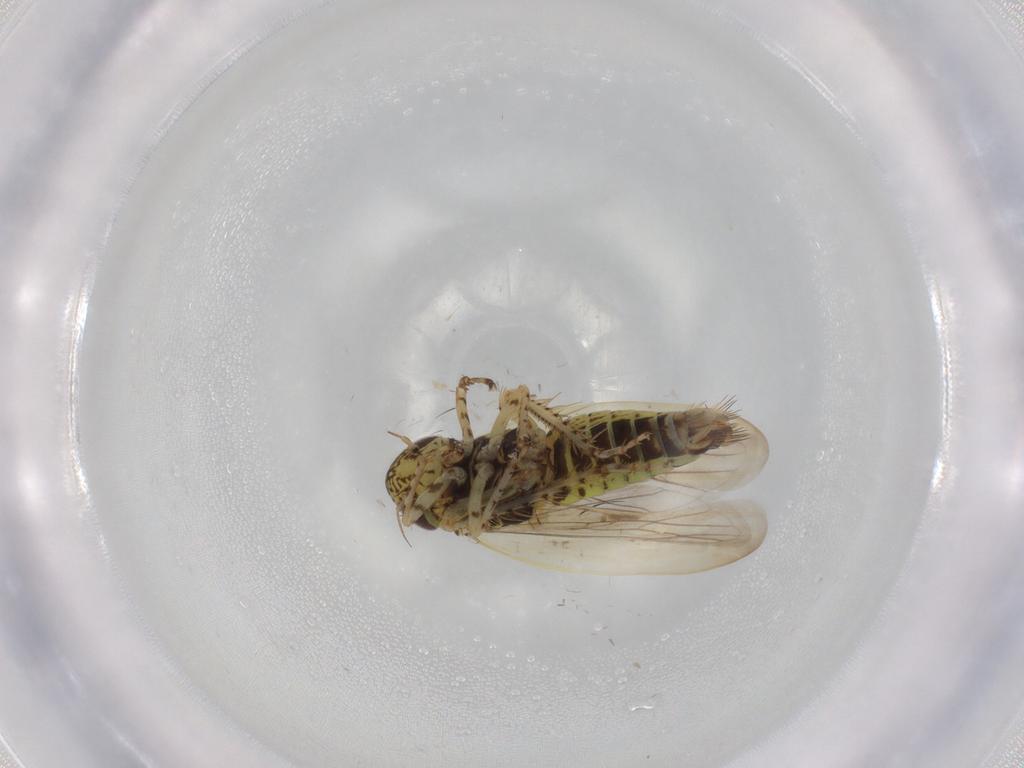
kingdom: Animalia
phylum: Arthropoda
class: Insecta
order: Hemiptera
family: Cicadellidae
